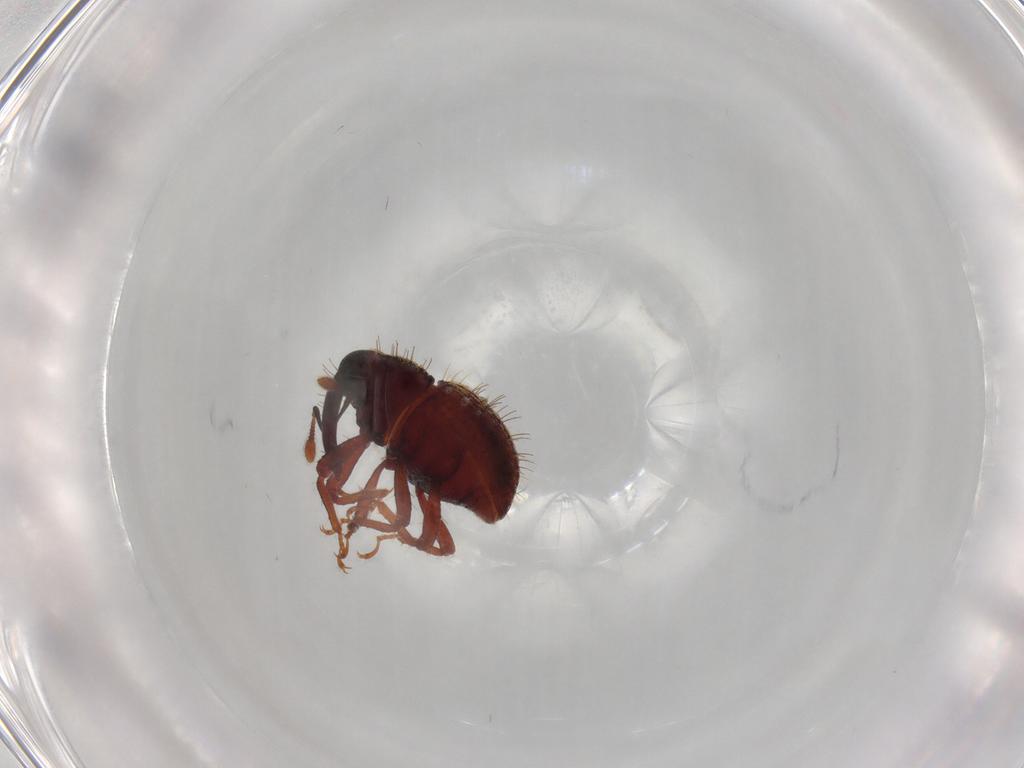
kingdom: Animalia
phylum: Arthropoda
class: Insecta
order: Coleoptera
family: Curculionidae
